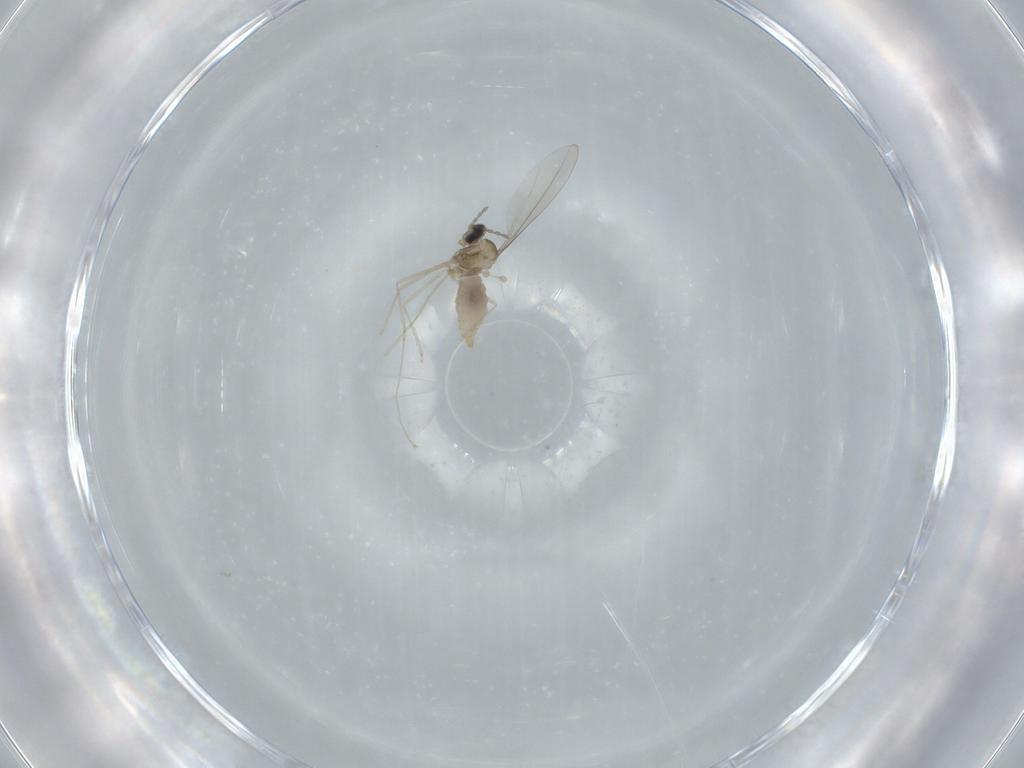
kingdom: Animalia
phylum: Arthropoda
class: Insecta
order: Diptera
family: Cecidomyiidae
